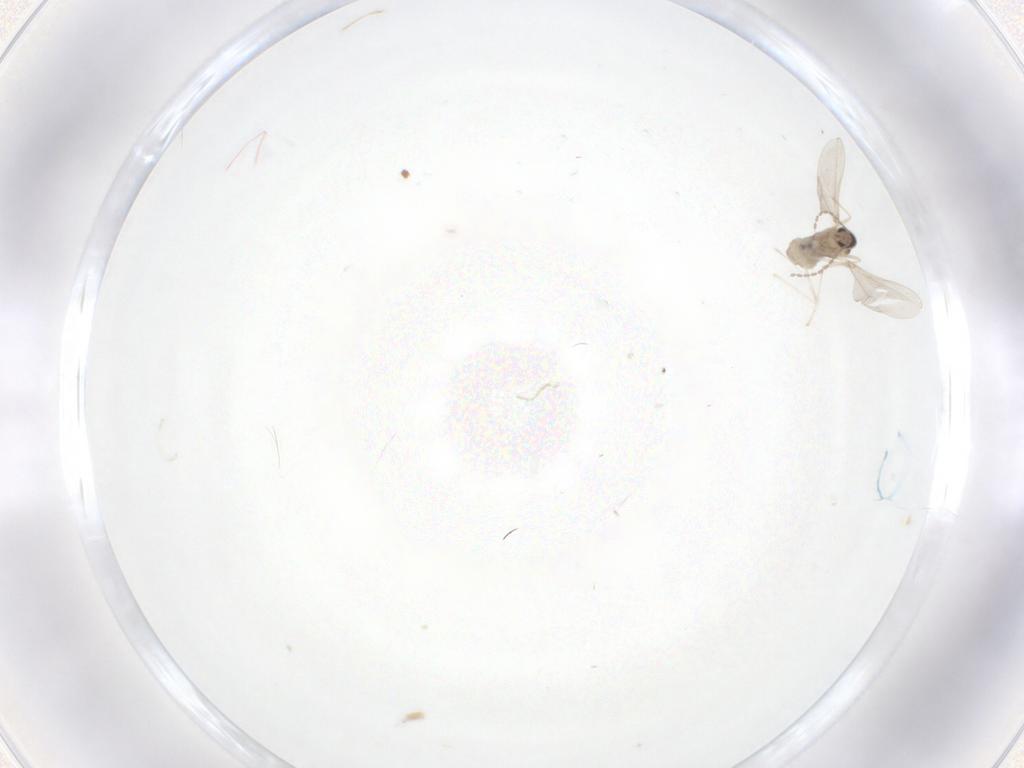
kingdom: Animalia
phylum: Arthropoda
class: Insecta
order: Diptera
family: Cecidomyiidae
